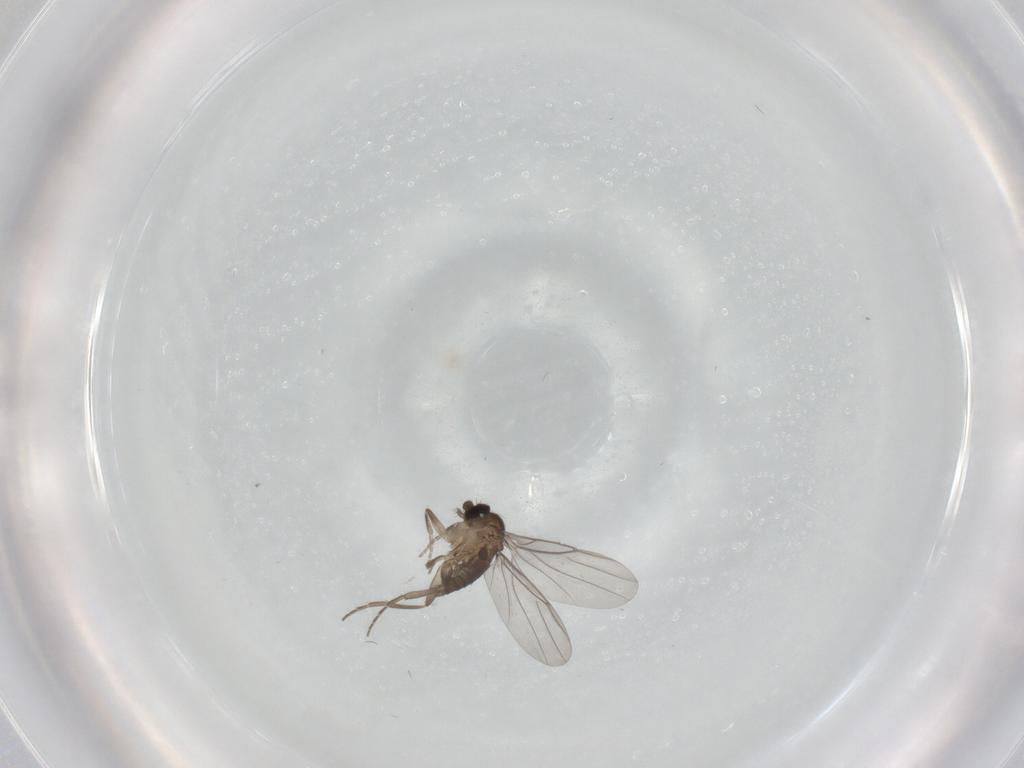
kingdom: Animalia
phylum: Arthropoda
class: Insecta
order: Diptera
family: Phoridae
